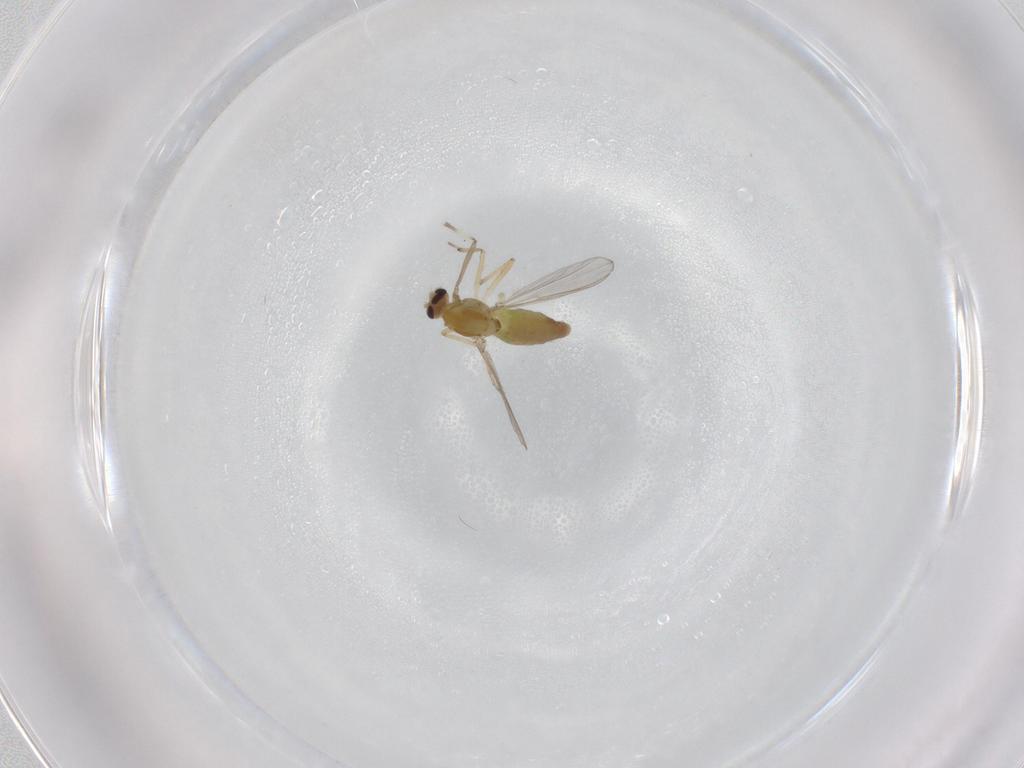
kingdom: Animalia
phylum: Arthropoda
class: Insecta
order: Diptera
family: Chironomidae
